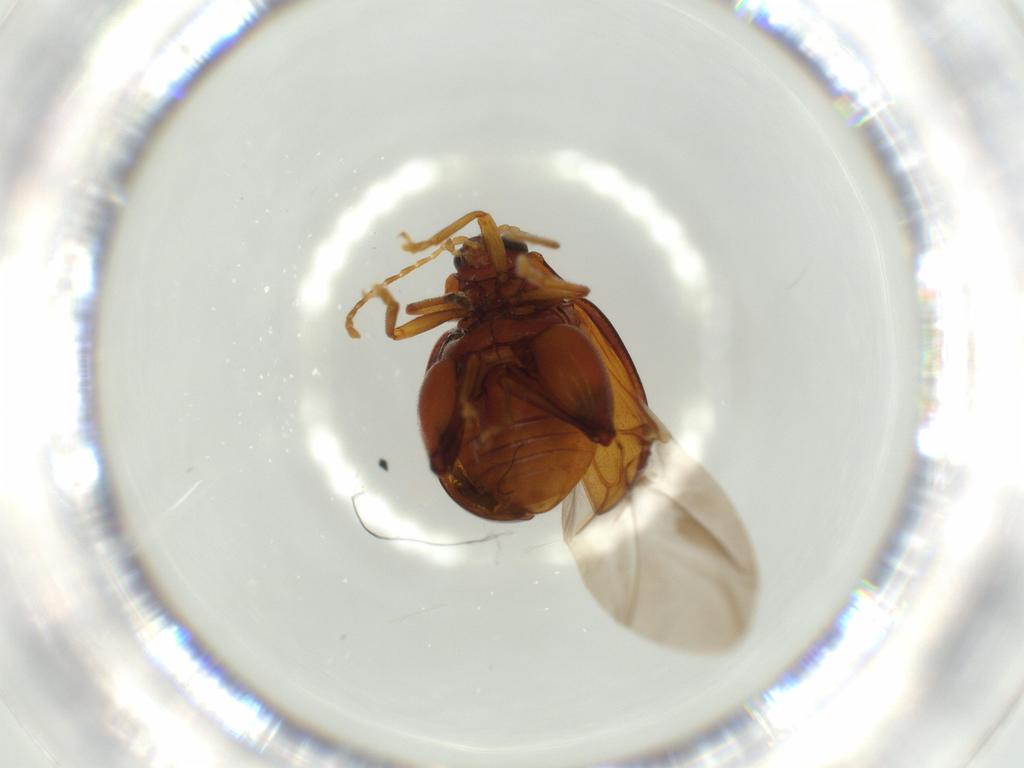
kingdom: Animalia
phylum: Arthropoda
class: Insecta
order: Coleoptera
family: Chrysomelidae
